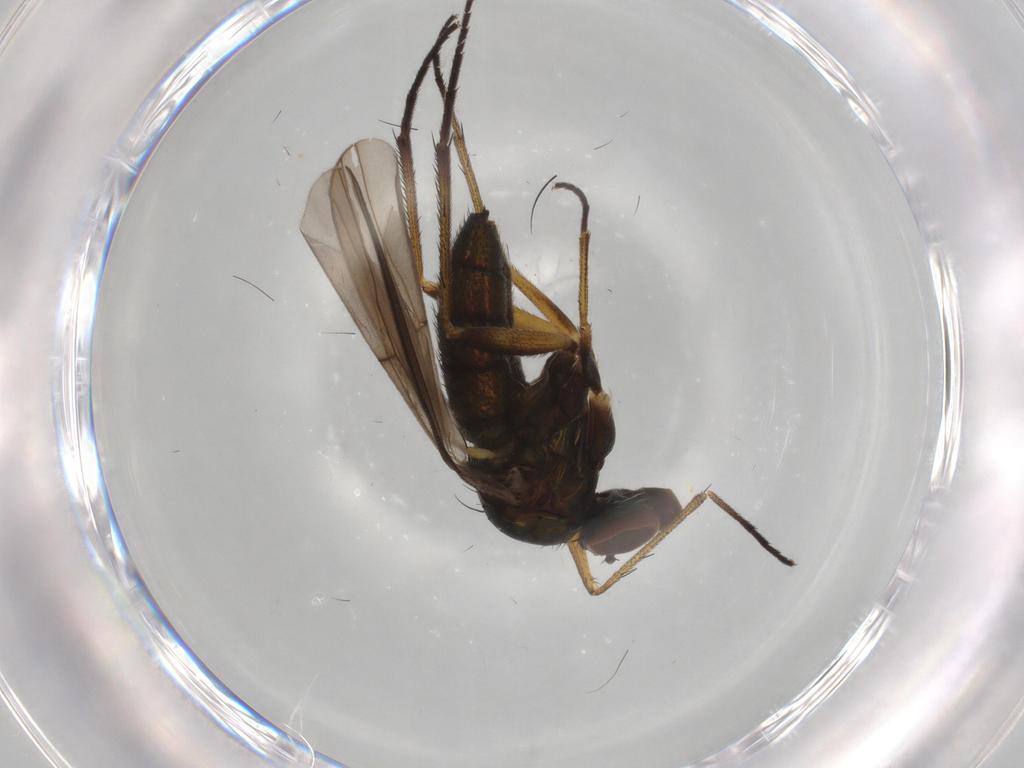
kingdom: Animalia
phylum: Arthropoda
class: Insecta
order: Diptera
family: Dolichopodidae
